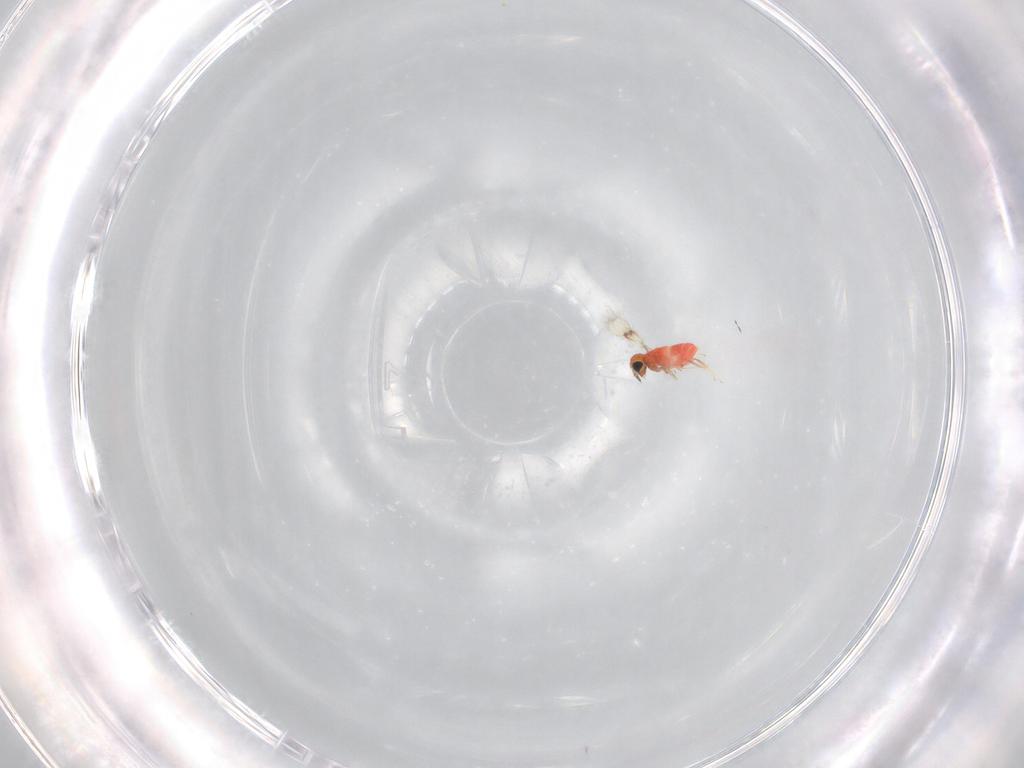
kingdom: Animalia
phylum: Arthropoda
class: Insecta
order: Hymenoptera
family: Trichogrammatidae
